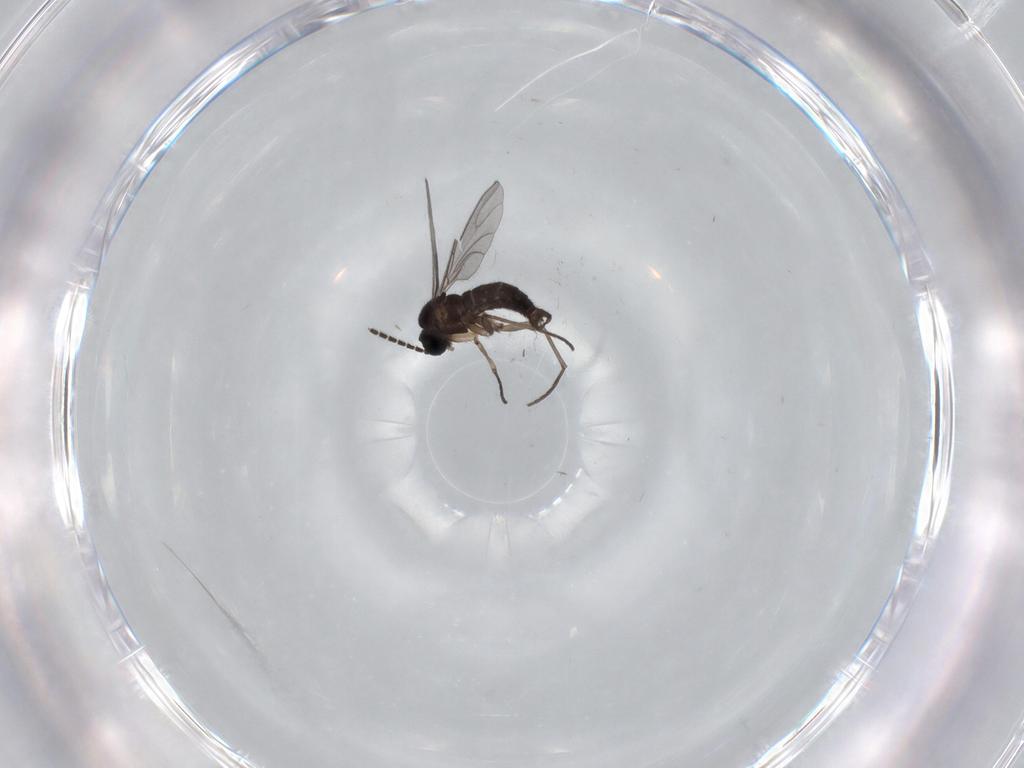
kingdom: Animalia
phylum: Arthropoda
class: Insecta
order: Diptera
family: Sciaridae
